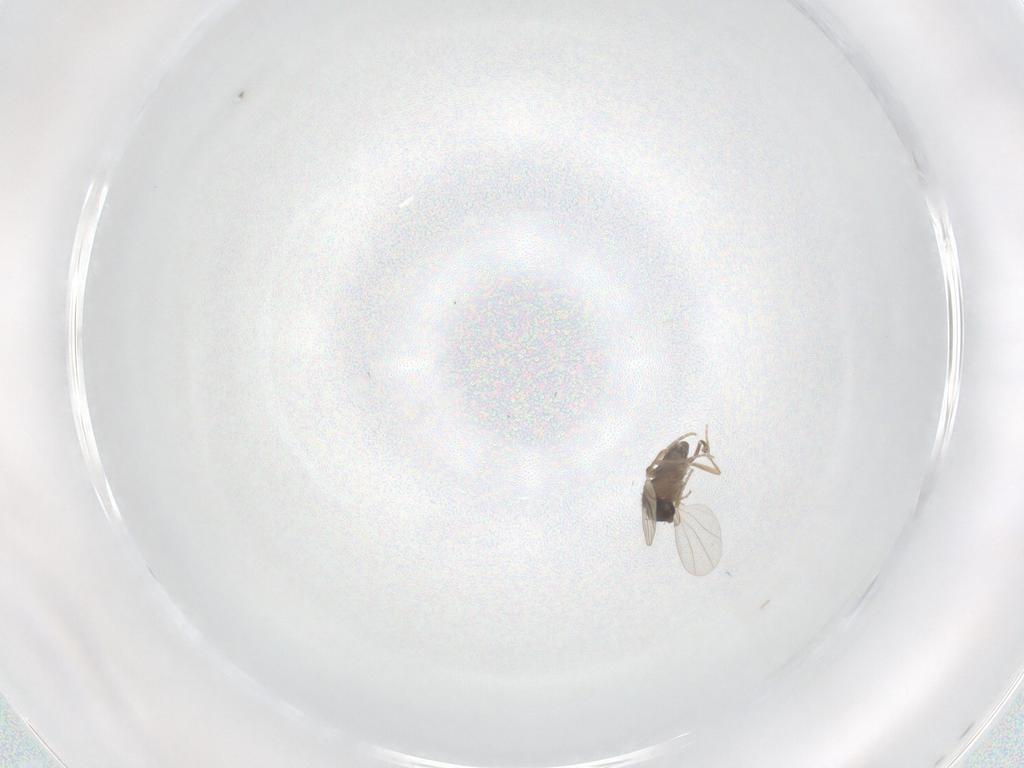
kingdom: Animalia
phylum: Arthropoda
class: Insecta
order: Diptera
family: Phoridae
